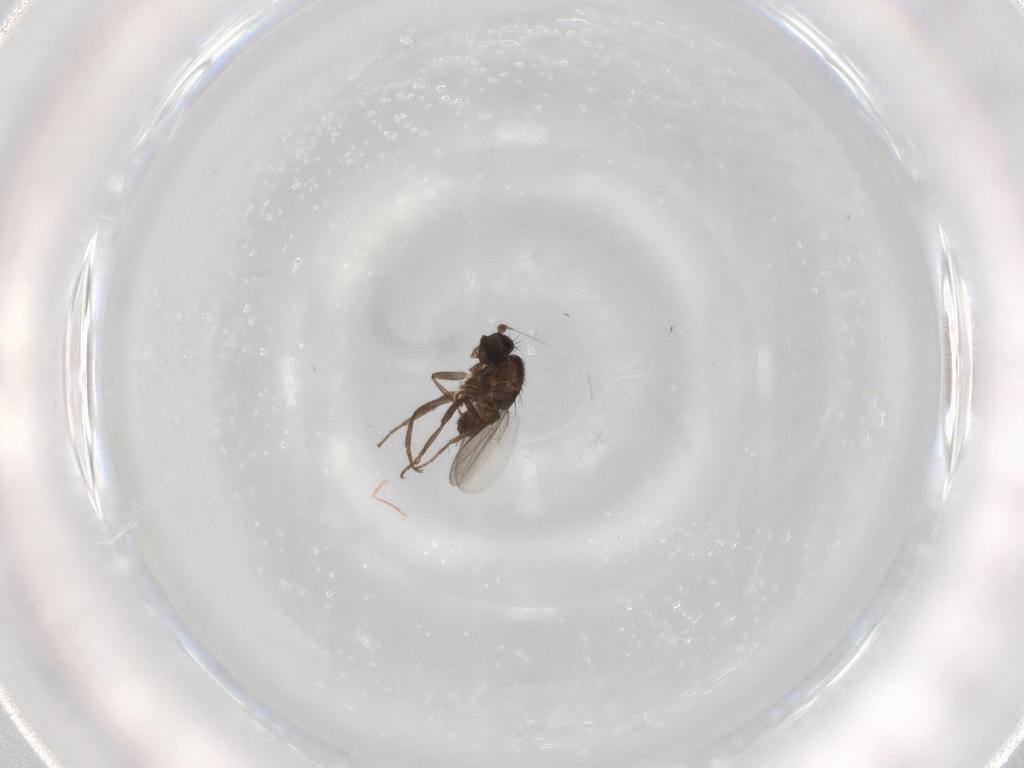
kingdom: Animalia
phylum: Arthropoda
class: Insecta
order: Diptera
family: Sphaeroceridae
